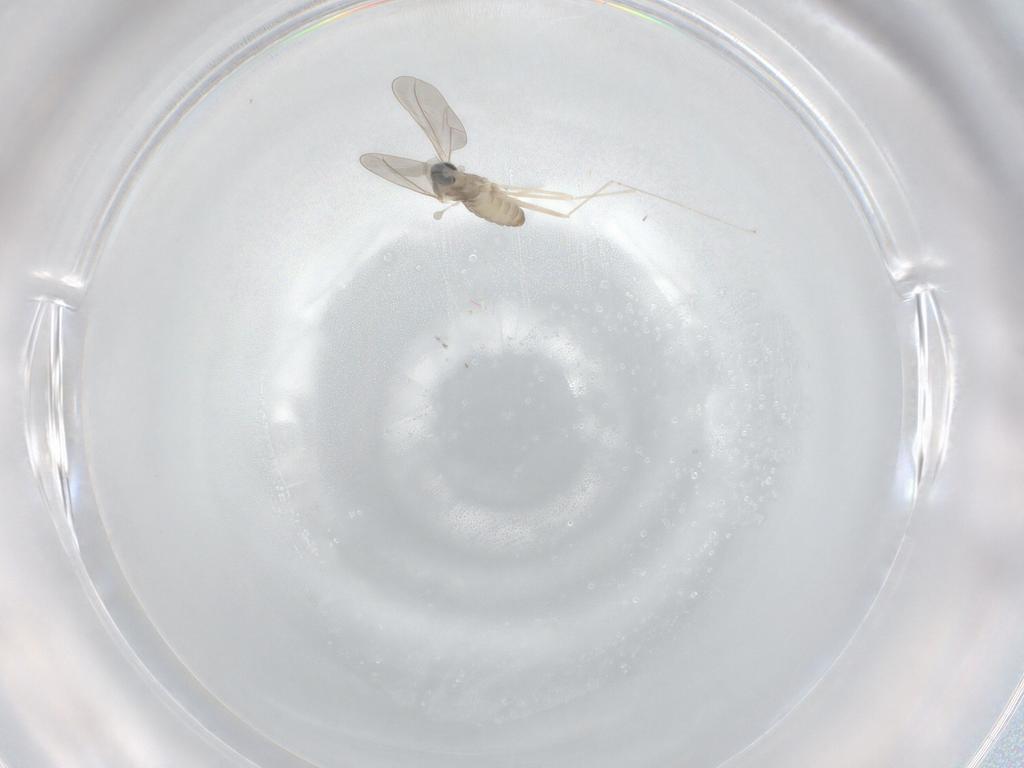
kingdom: Animalia
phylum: Arthropoda
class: Insecta
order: Diptera
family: Cecidomyiidae
